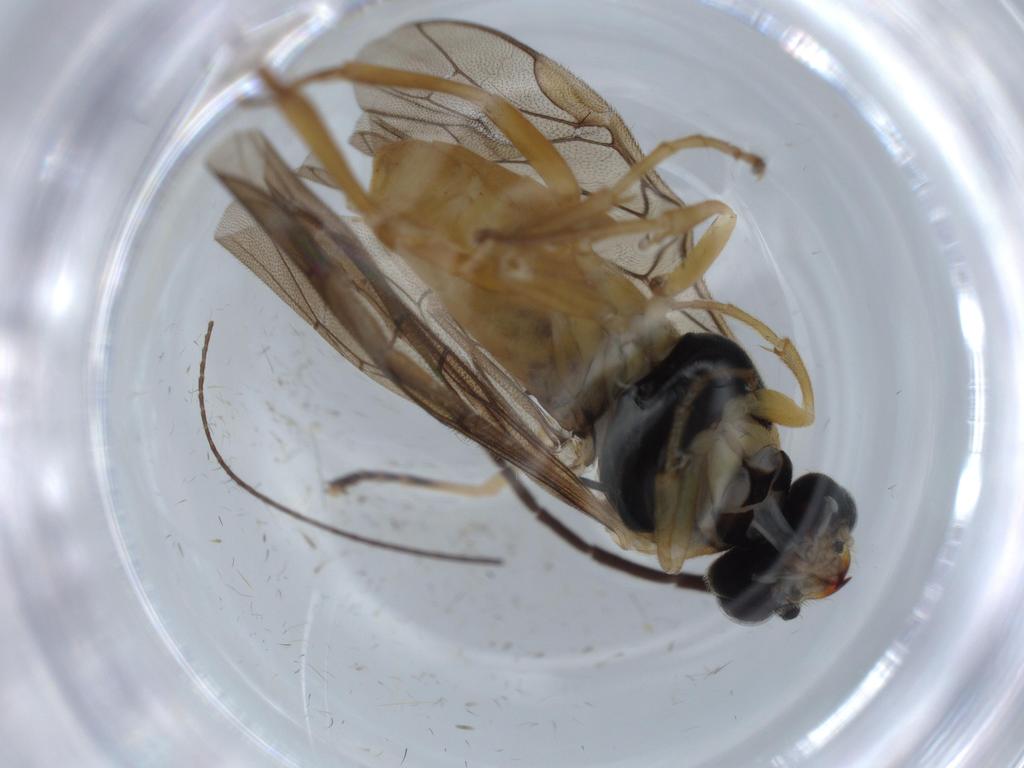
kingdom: Animalia
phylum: Arthropoda
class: Insecta
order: Hymenoptera
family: Tenthredinidae
